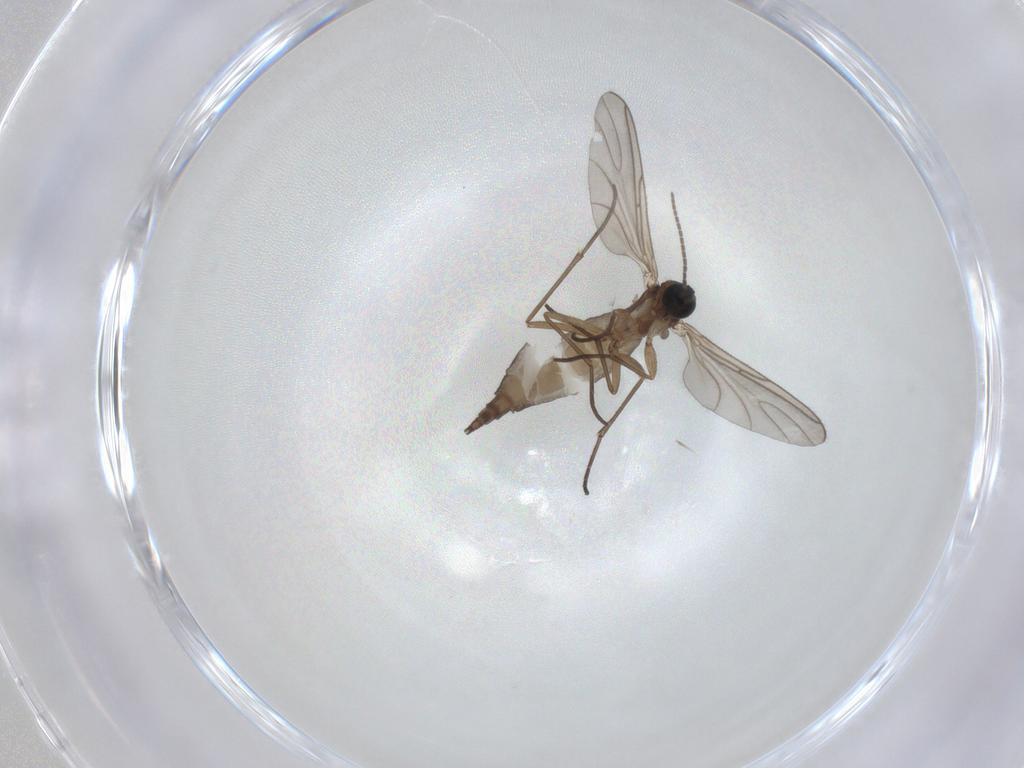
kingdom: Animalia
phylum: Arthropoda
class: Insecta
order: Diptera
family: Sciaridae
